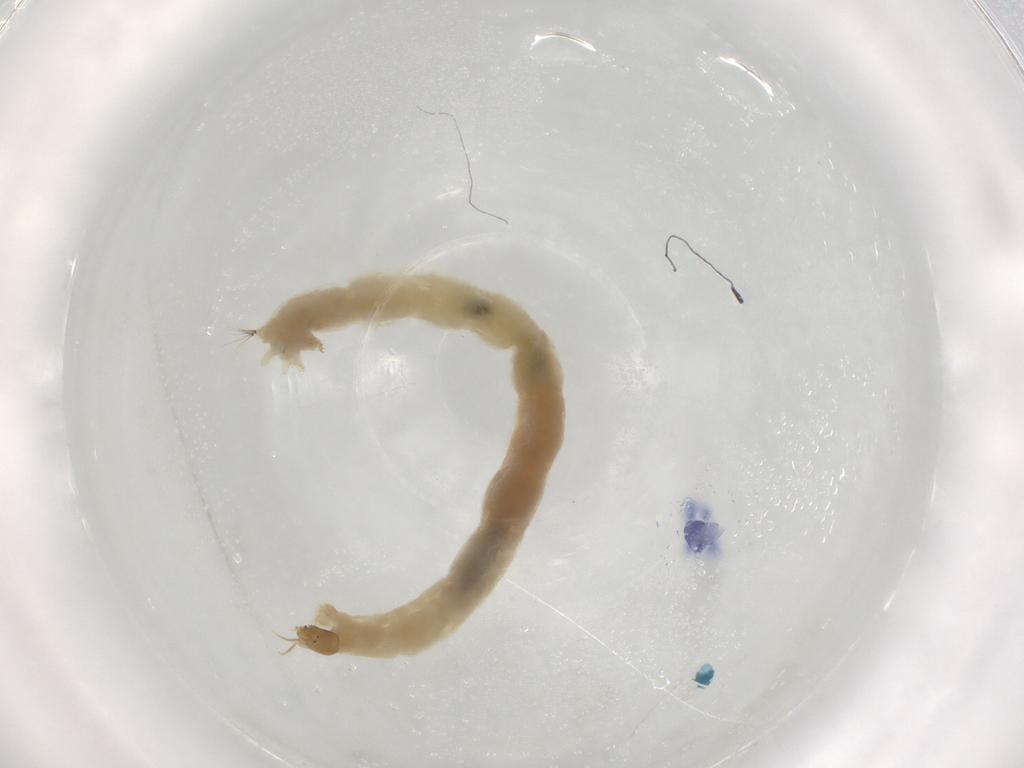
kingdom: Animalia
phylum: Arthropoda
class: Insecta
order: Diptera
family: Chironomidae
